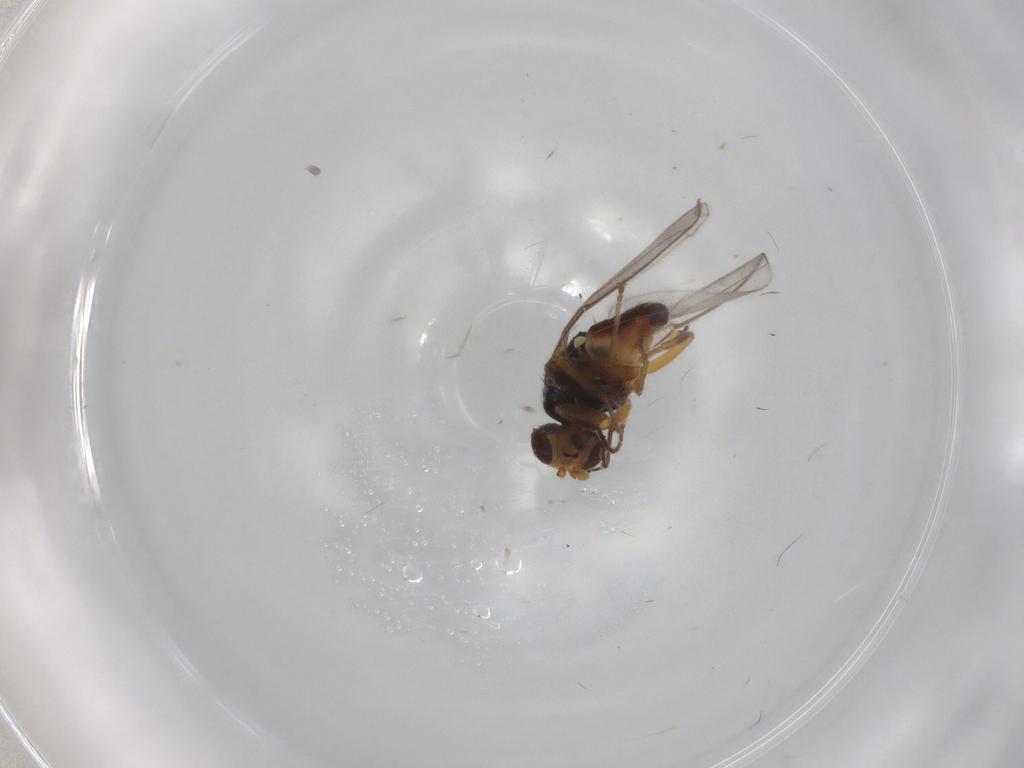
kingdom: Animalia
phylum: Arthropoda
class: Insecta
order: Diptera
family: Chloropidae
